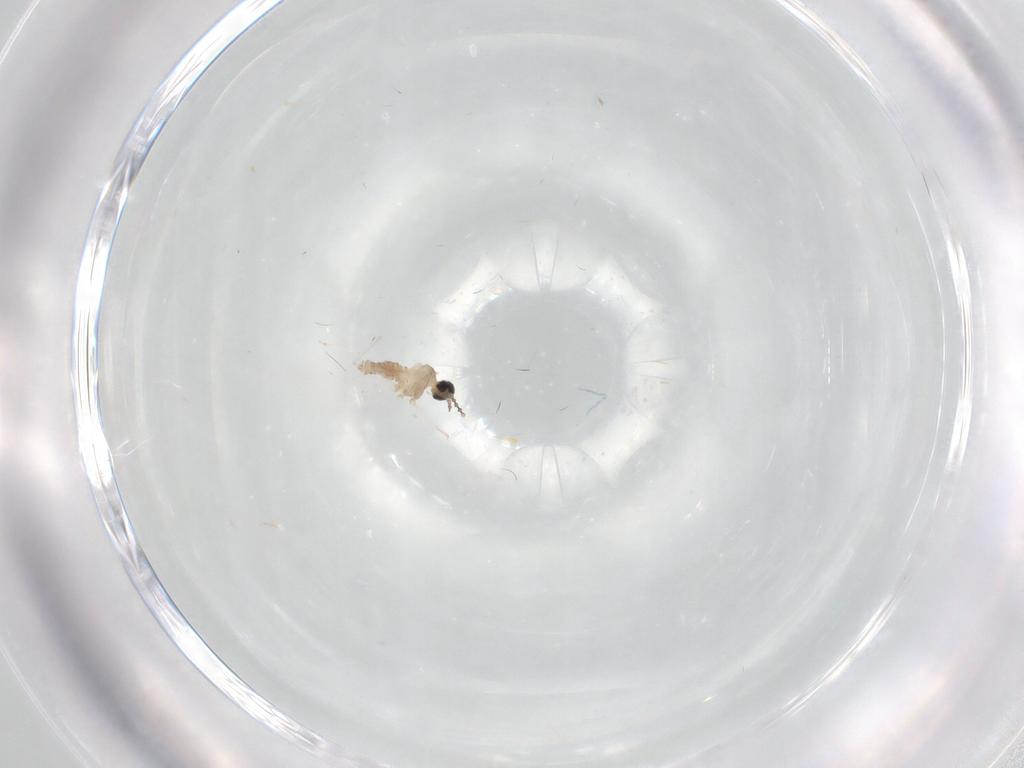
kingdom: Animalia
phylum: Arthropoda
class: Insecta
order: Diptera
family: Cecidomyiidae
